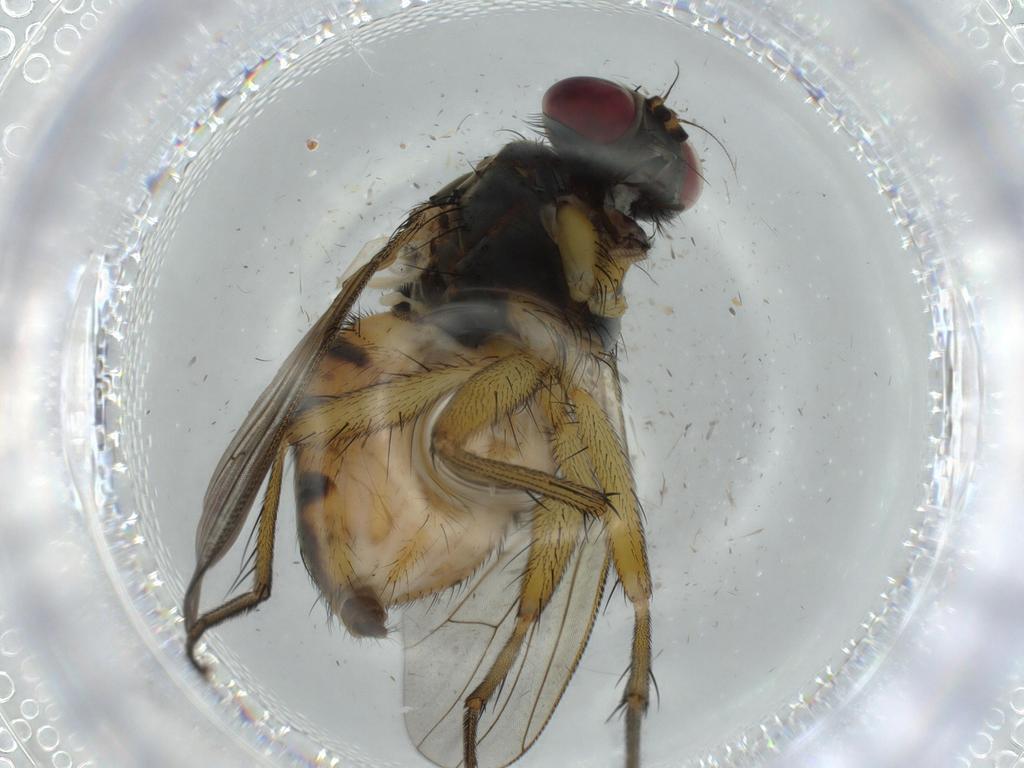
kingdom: Animalia
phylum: Arthropoda
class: Insecta
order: Diptera
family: Muscidae
